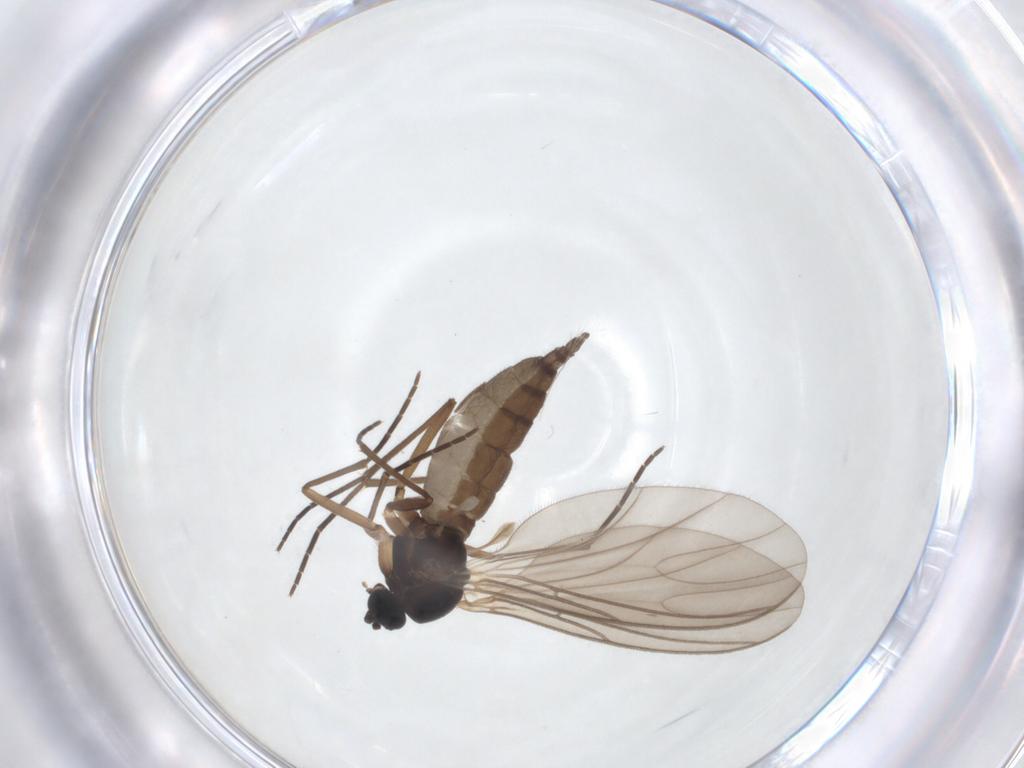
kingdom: Animalia
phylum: Arthropoda
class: Insecta
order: Diptera
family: Sciaridae
